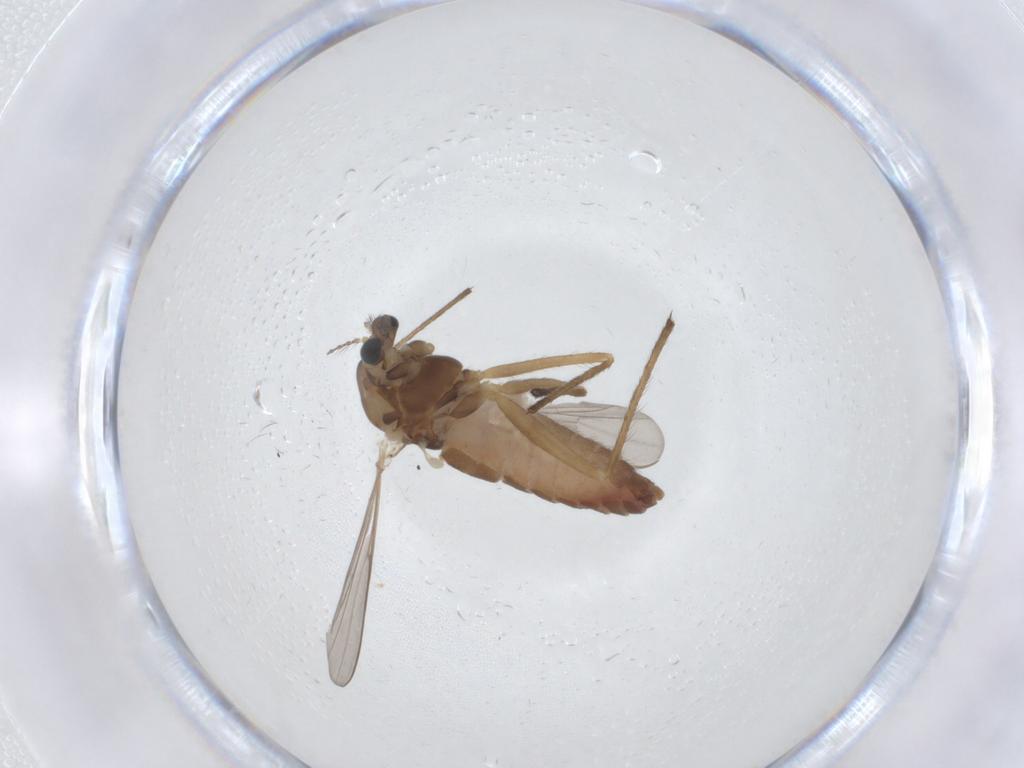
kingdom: Animalia
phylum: Arthropoda
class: Insecta
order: Diptera
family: Chironomidae
